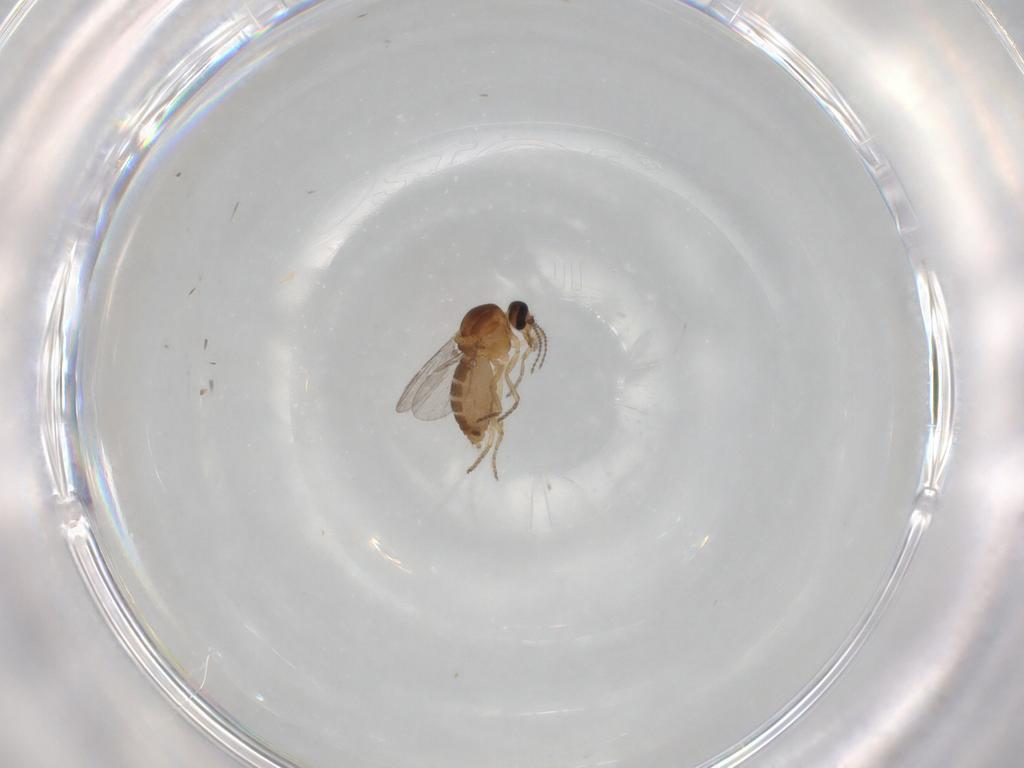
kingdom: Animalia
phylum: Arthropoda
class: Insecta
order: Diptera
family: Ceratopogonidae
